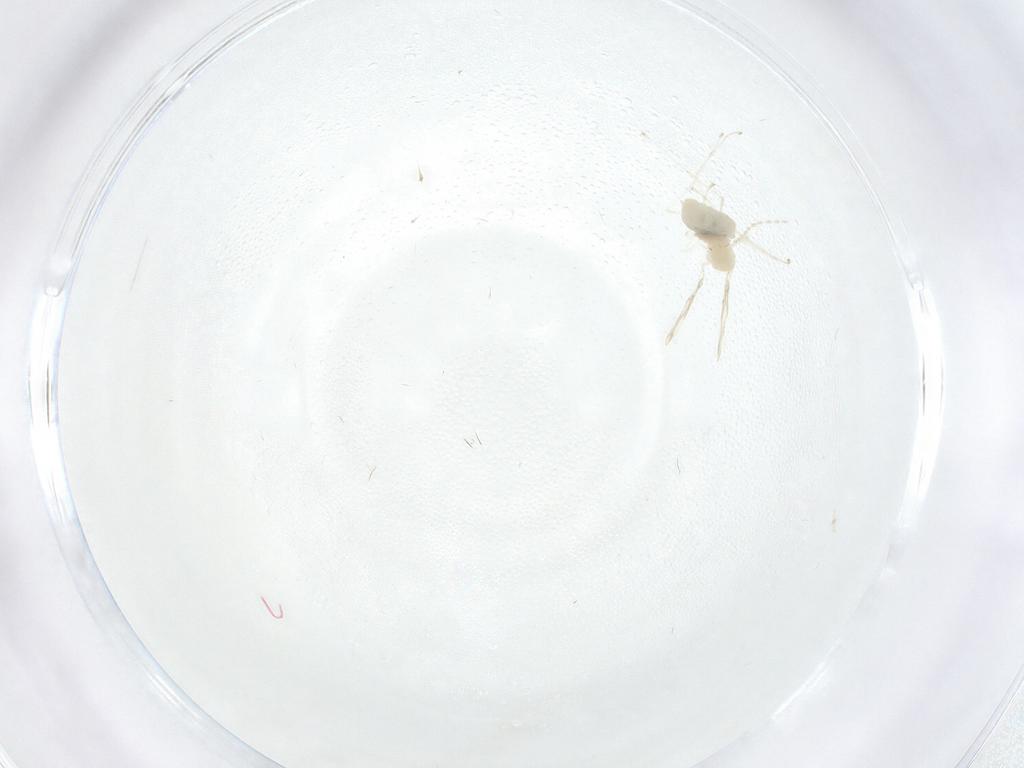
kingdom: Animalia
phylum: Arthropoda
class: Insecta
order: Diptera
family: Cecidomyiidae
